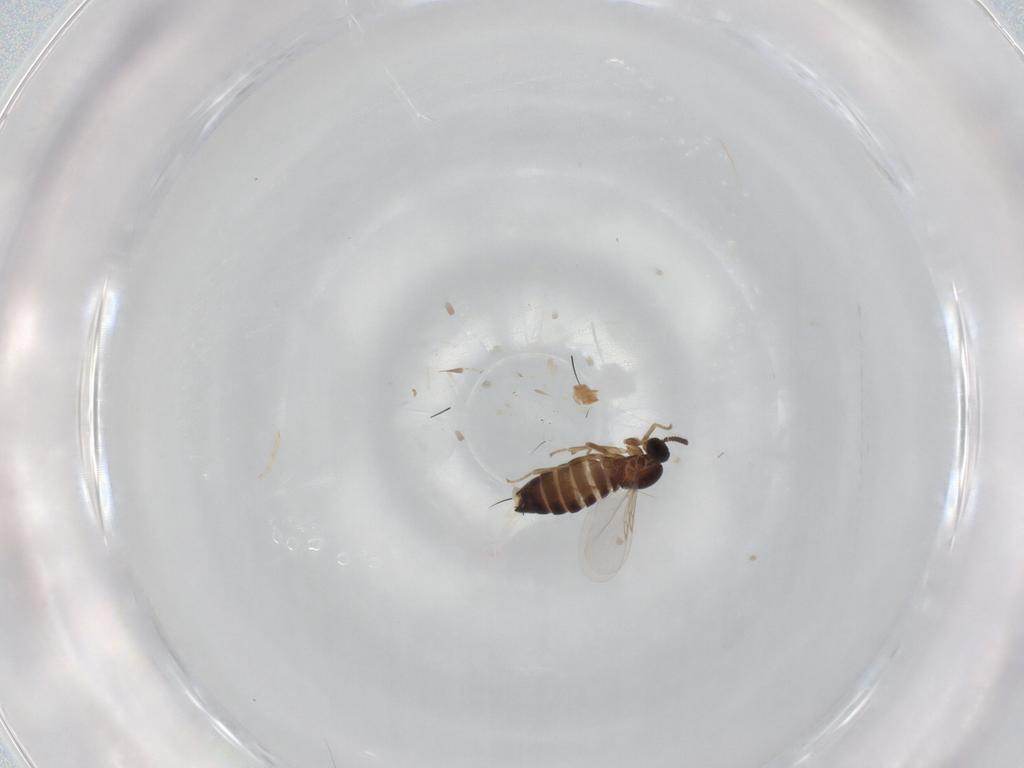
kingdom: Animalia
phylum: Arthropoda
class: Insecta
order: Diptera
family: Scatopsidae
